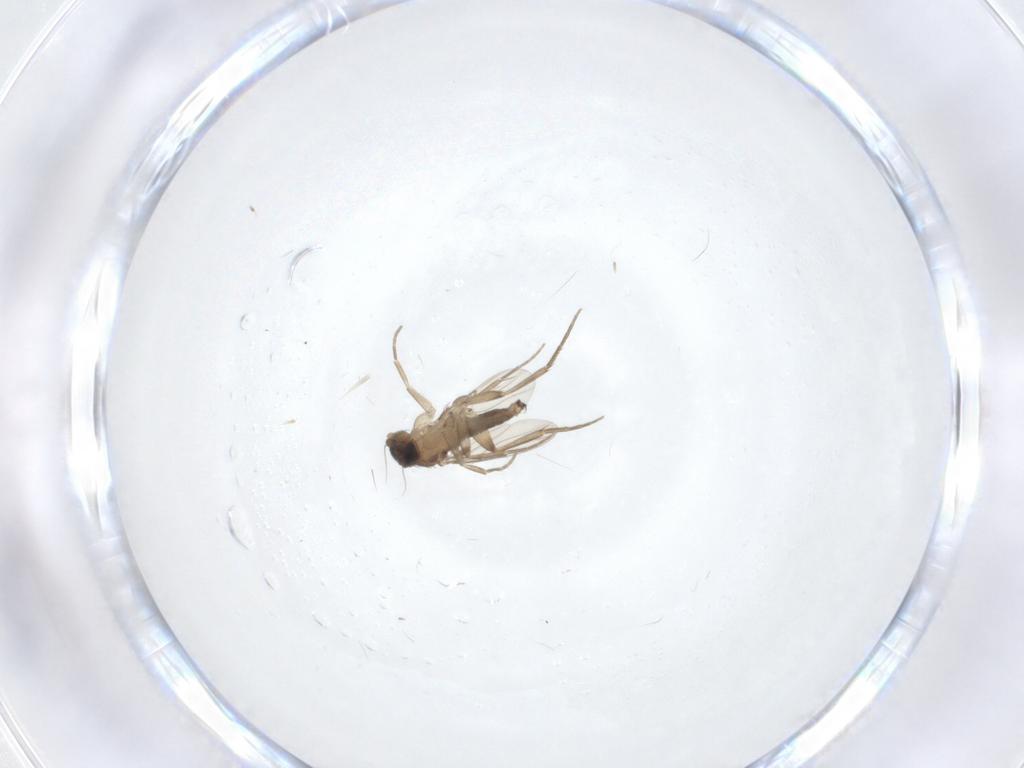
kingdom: Animalia
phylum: Arthropoda
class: Insecta
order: Diptera
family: Phoridae
